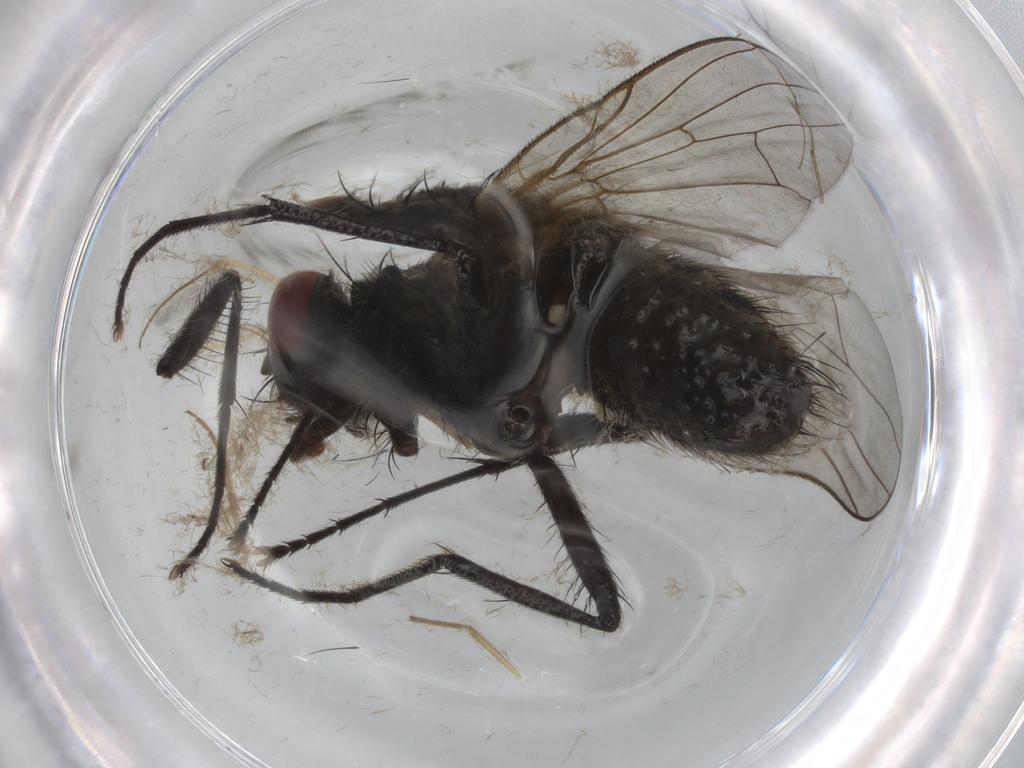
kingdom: Animalia
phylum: Arthropoda
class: Insecta
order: Diptera
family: Muscidae
